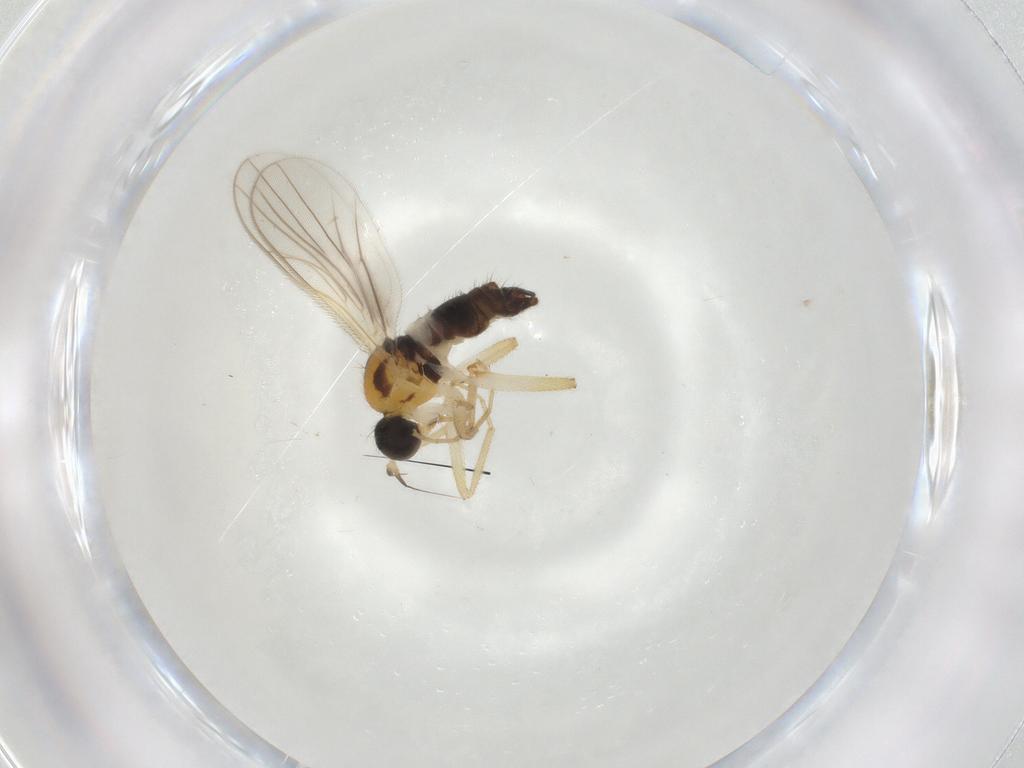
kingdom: Animalia
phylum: Arthropoda
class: Insecta
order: Diptera
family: Hybotidae
